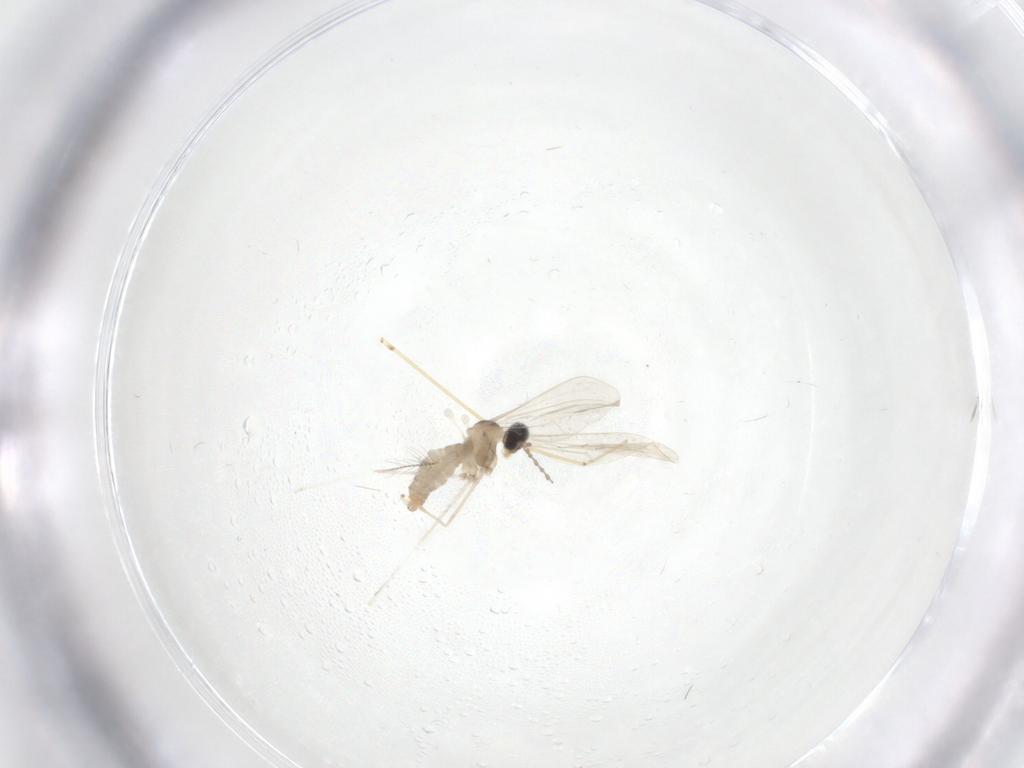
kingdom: Animalia
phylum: Arthropoda
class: Insecta
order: Diptera
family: Cecidomyiidae
